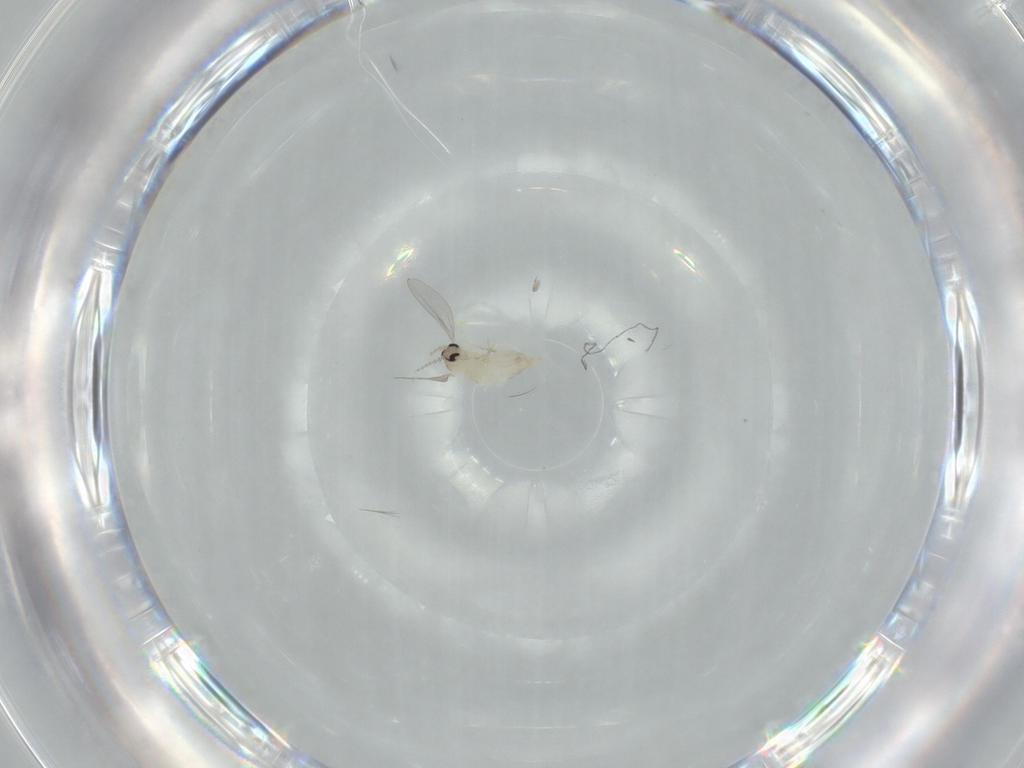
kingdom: Animalia
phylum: Arthropoda
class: Insecta
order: Diptera
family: Cecidomyiidae
